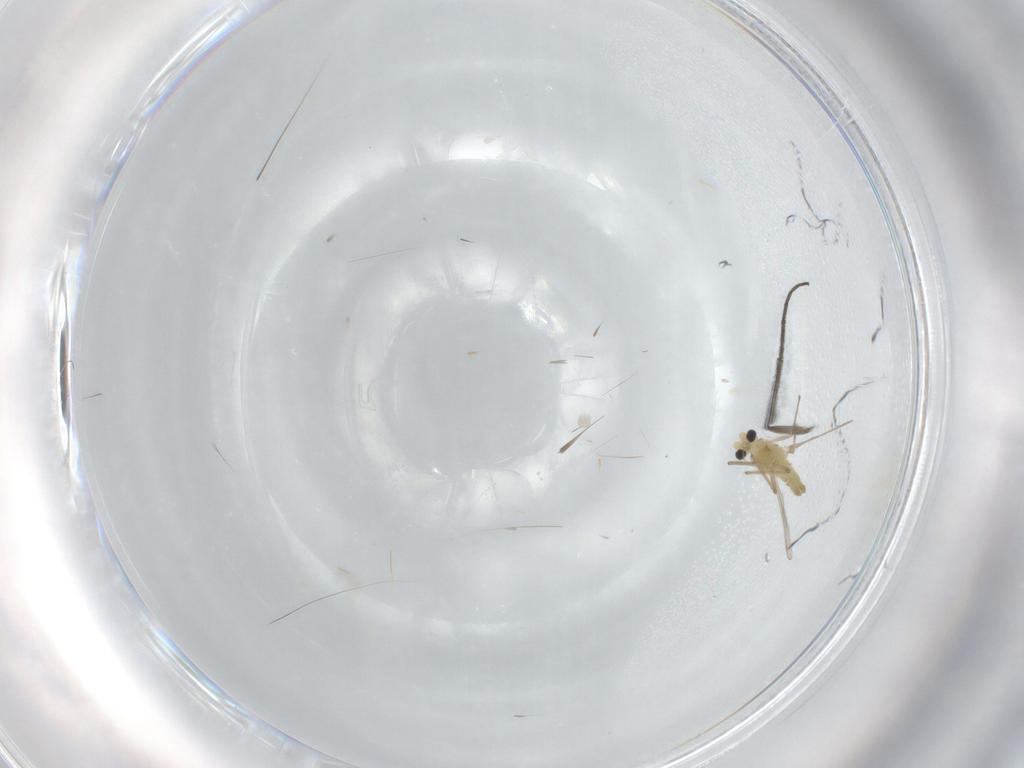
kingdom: Animalia
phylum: Arthropoda
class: Insecta
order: Diptera
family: Sciaridae
